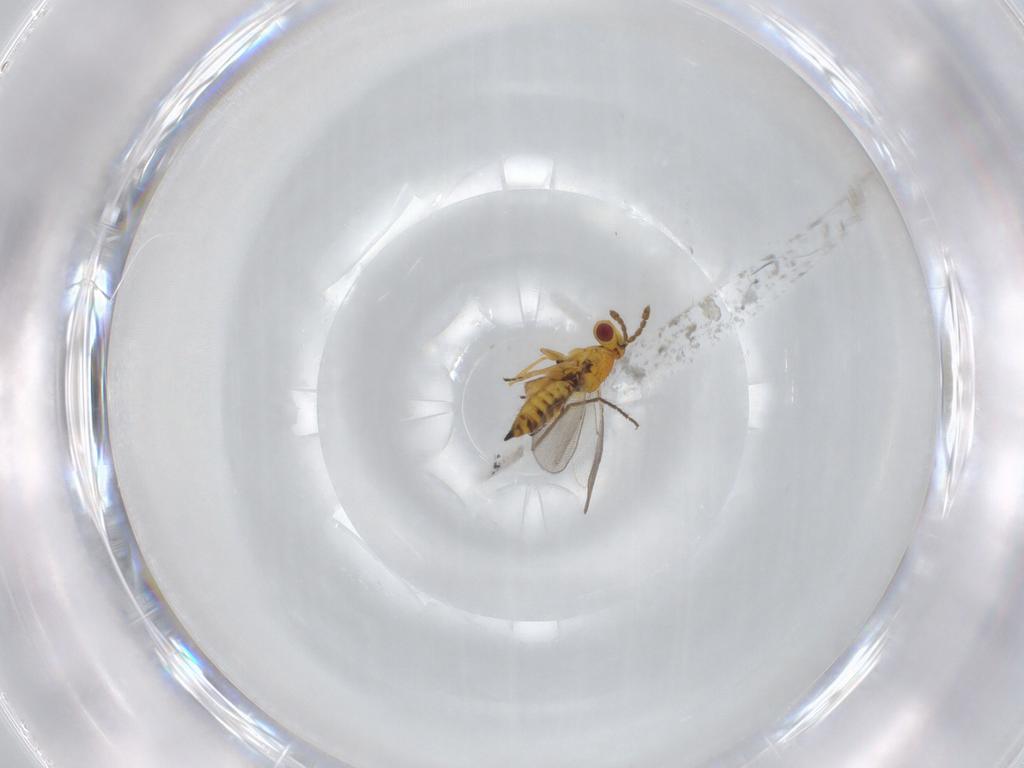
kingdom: Animalia
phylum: Arthropoda
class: Insecta
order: Hymenoptera
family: Eulophidae
